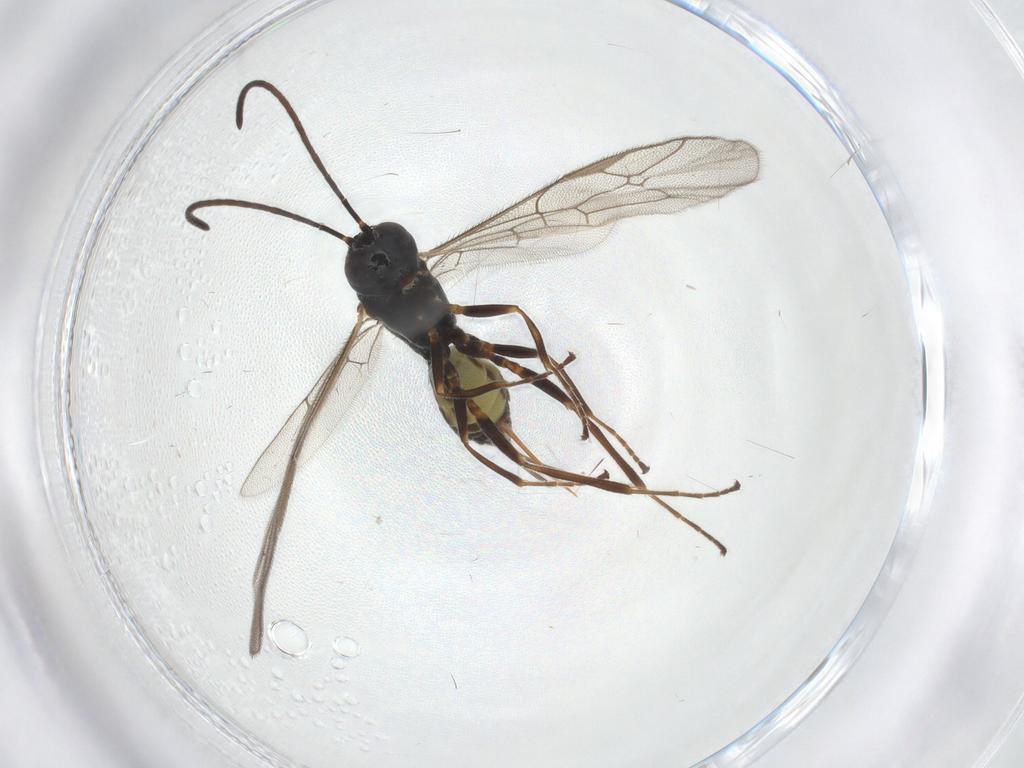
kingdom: Animalia
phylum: Arthropoda
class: Insecta
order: Hymenoptera
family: Ichneumonidae
